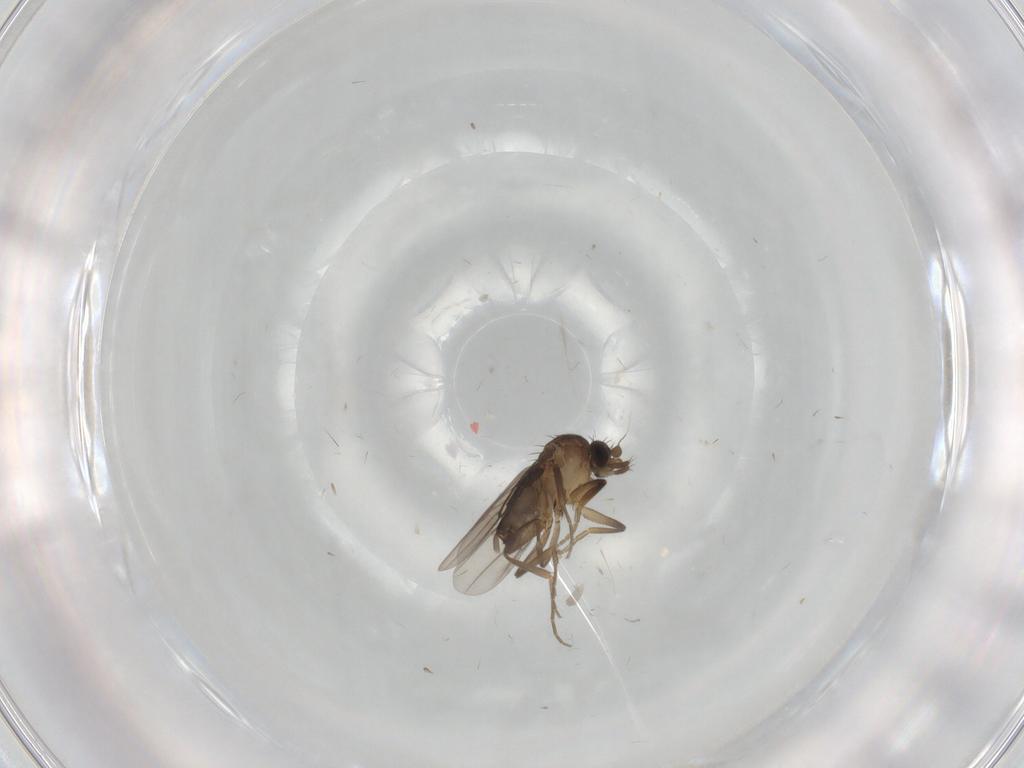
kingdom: Animalia
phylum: Arthropoda
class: Insecta
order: Diptera
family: Phoridae
